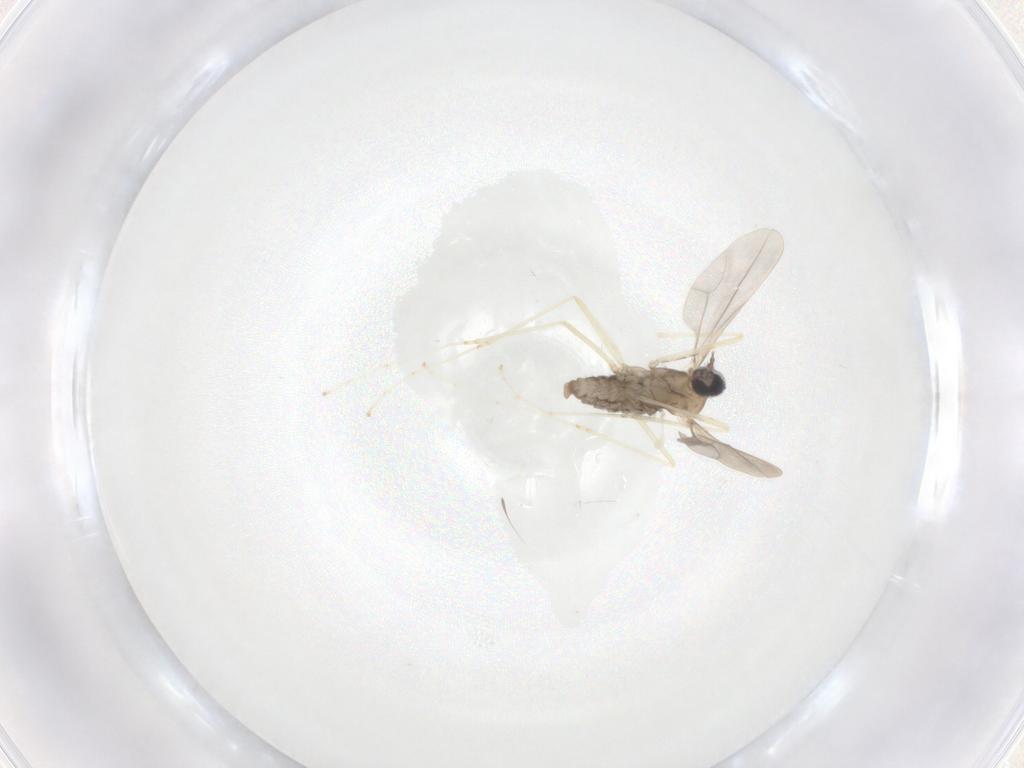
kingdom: Animalia
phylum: Arthropoda
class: Insecta
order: Diptera
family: Cecidomyiidae
